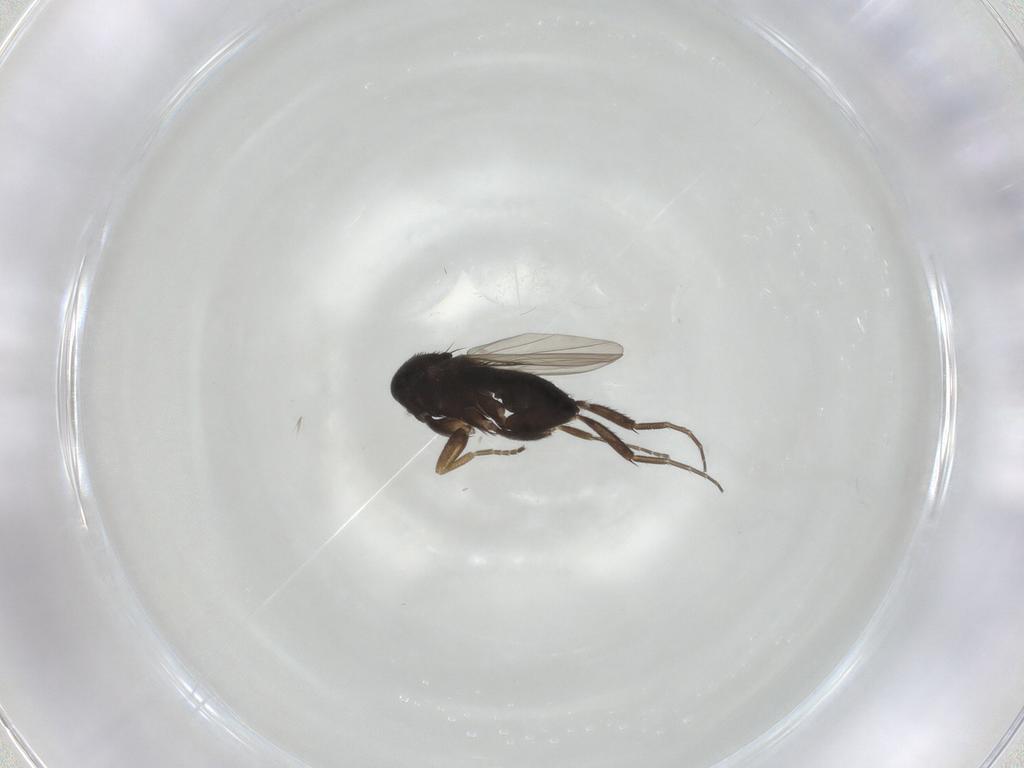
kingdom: Animalia
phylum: Arthropoda
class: Insecta
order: Diptera
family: Phoridae
